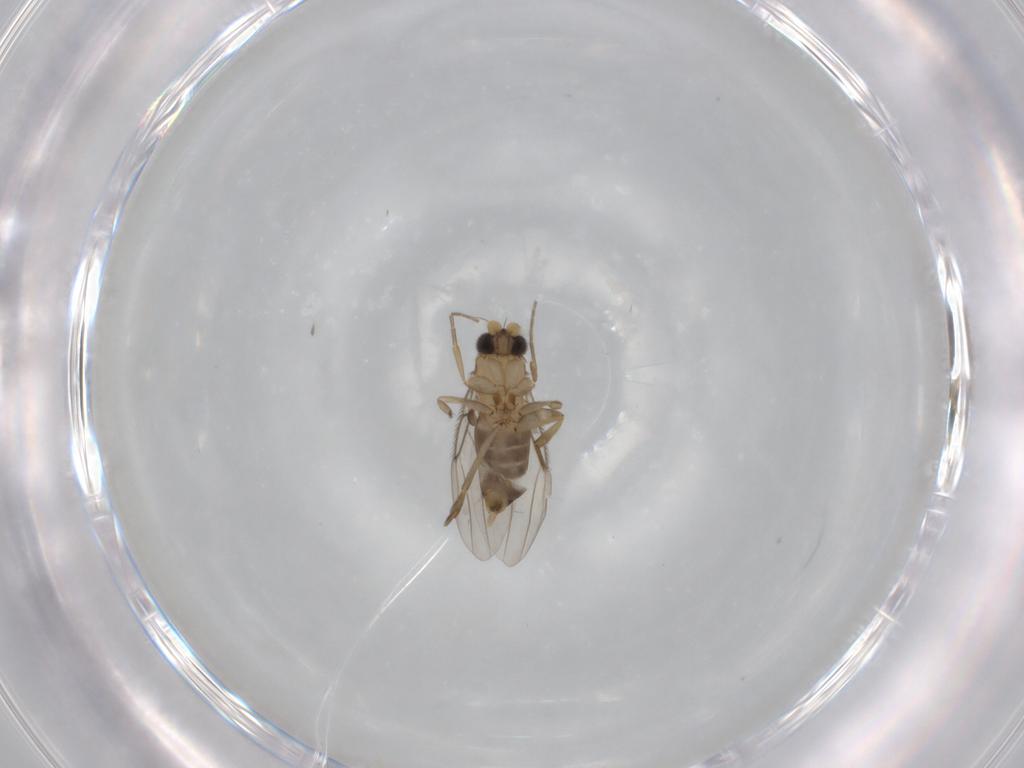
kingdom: Animalia
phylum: Arthropoda
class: Insecta
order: Diptera
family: Phoridae
